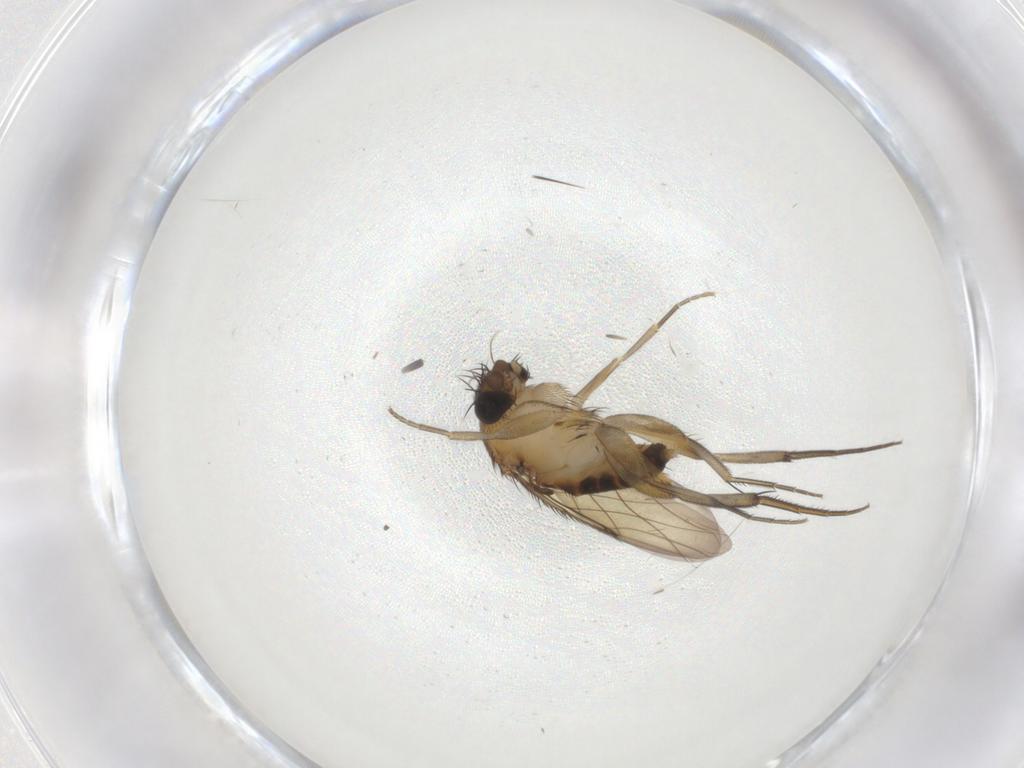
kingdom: Animalia
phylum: Arthropoda
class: Insecta
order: Diptera
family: Phoridae
